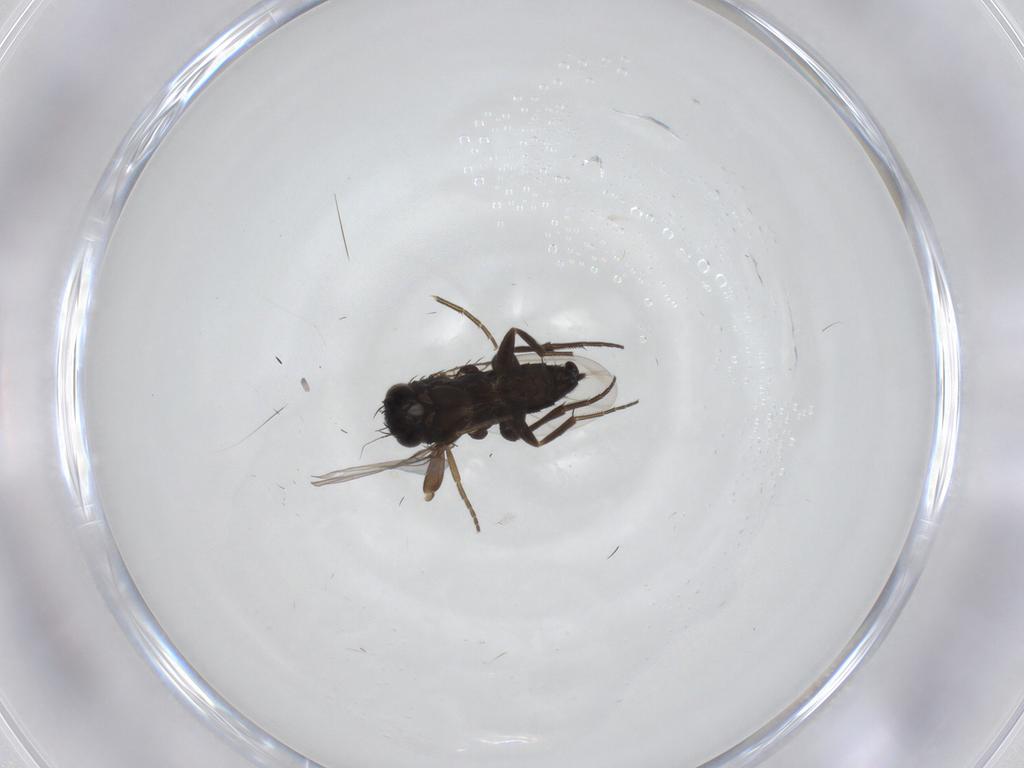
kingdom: Animalia
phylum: Arthropoda
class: Insecta
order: Diptera
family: Phoridae
